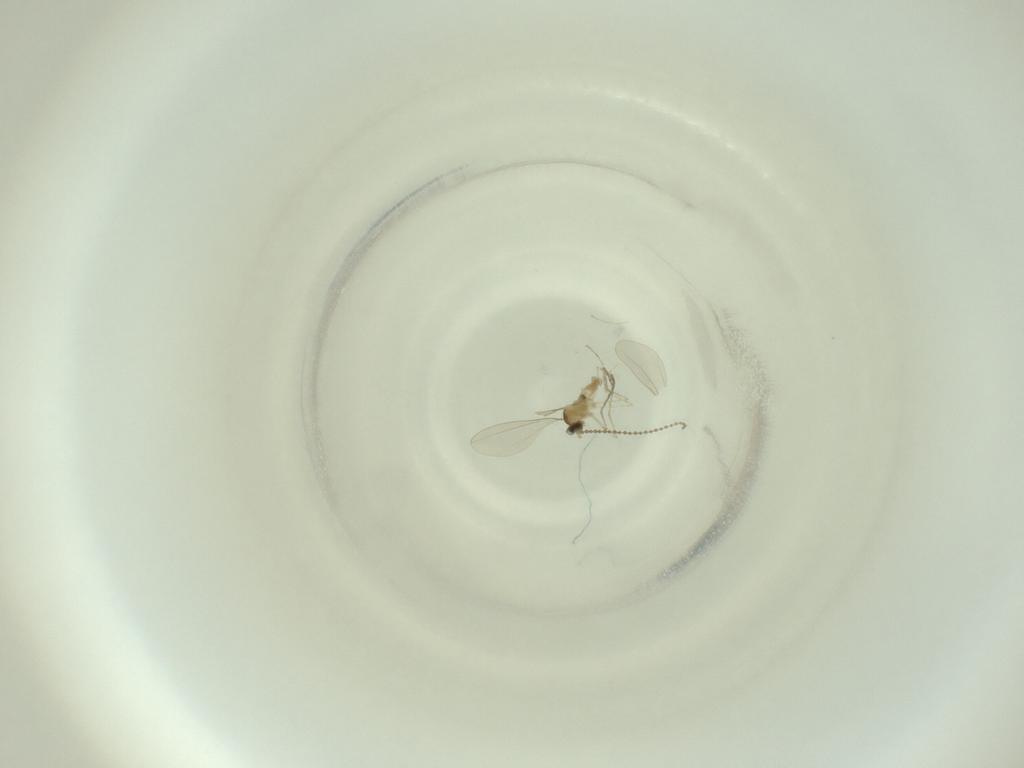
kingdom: Animalia
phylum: Arthropoda
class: Insecta
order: Diptera
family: Cecidomyiidae
